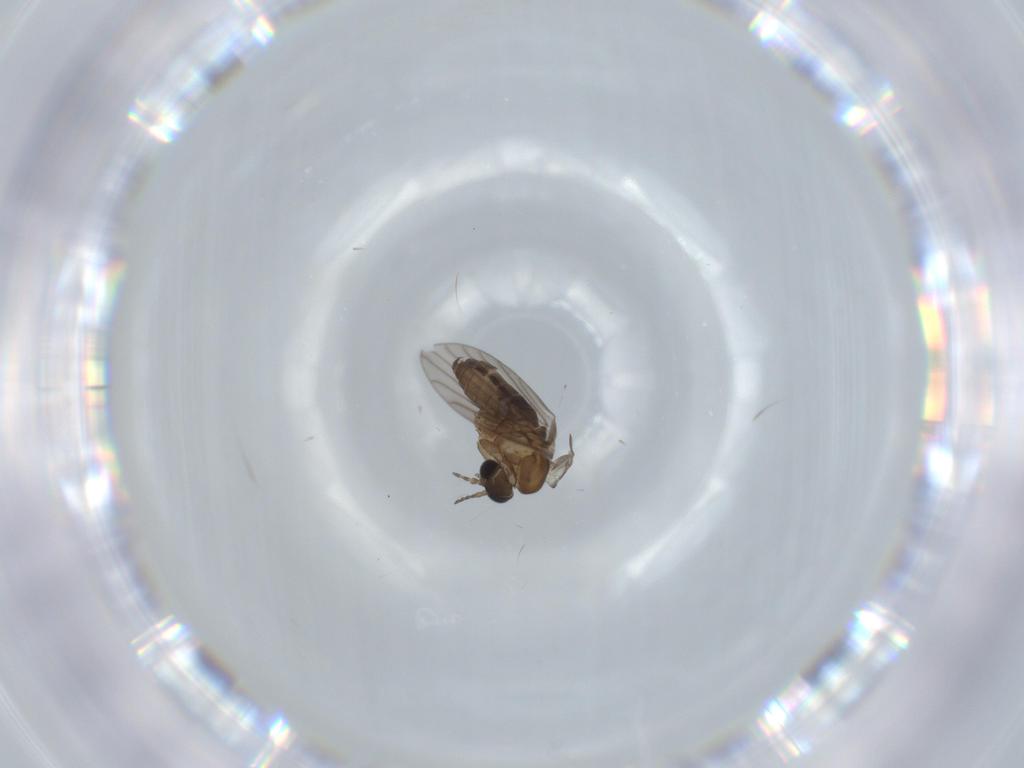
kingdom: Animalia
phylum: Arthropoda
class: Insecta
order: Diptera
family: Psychodidae
